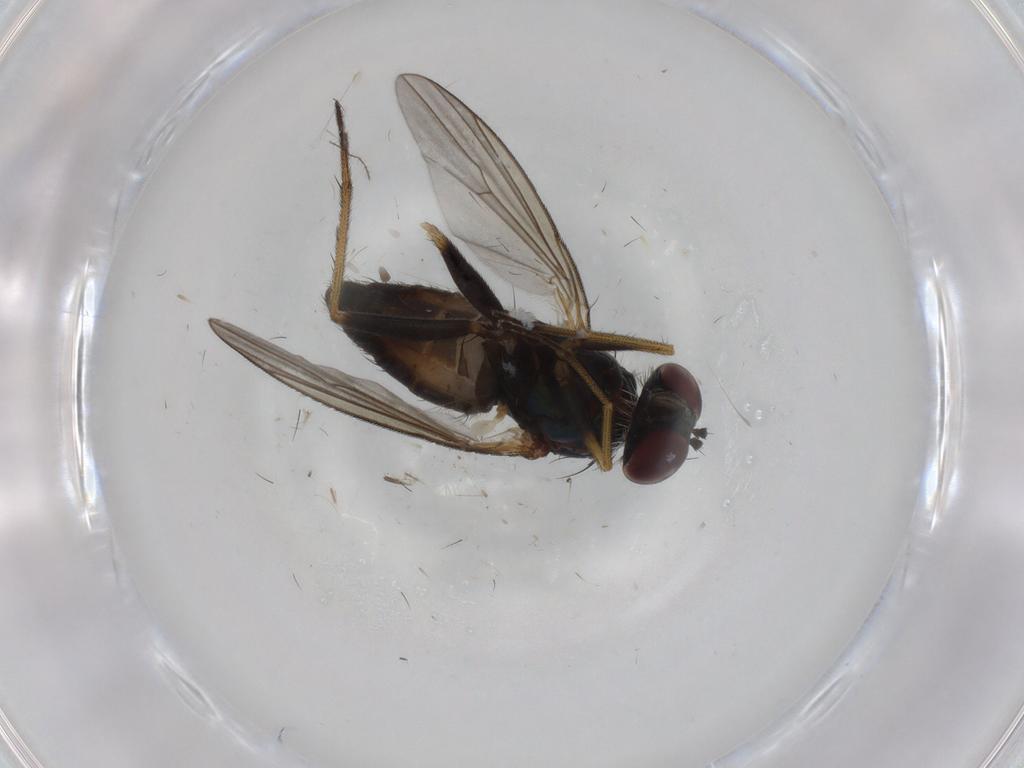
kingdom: Animalia
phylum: Arthropoda
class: Insecta
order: Diptera
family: Dolichopodidae
